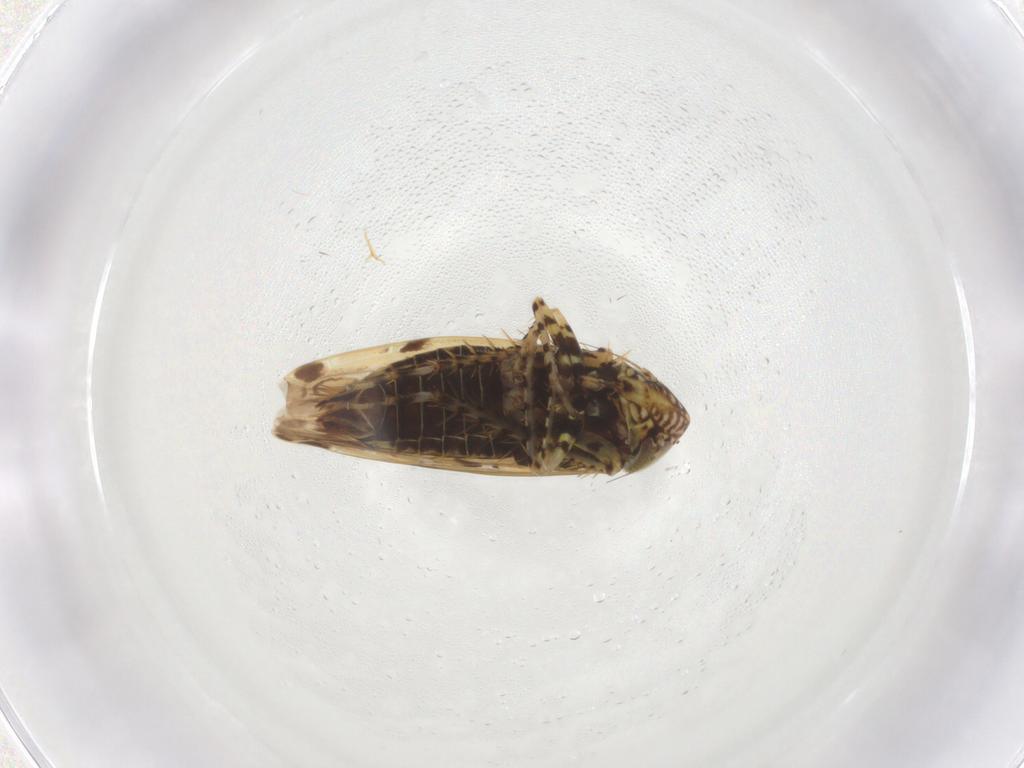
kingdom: Animalia
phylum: Arthropoda
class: Insecta
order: Hemiptera
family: Cicadellidae
